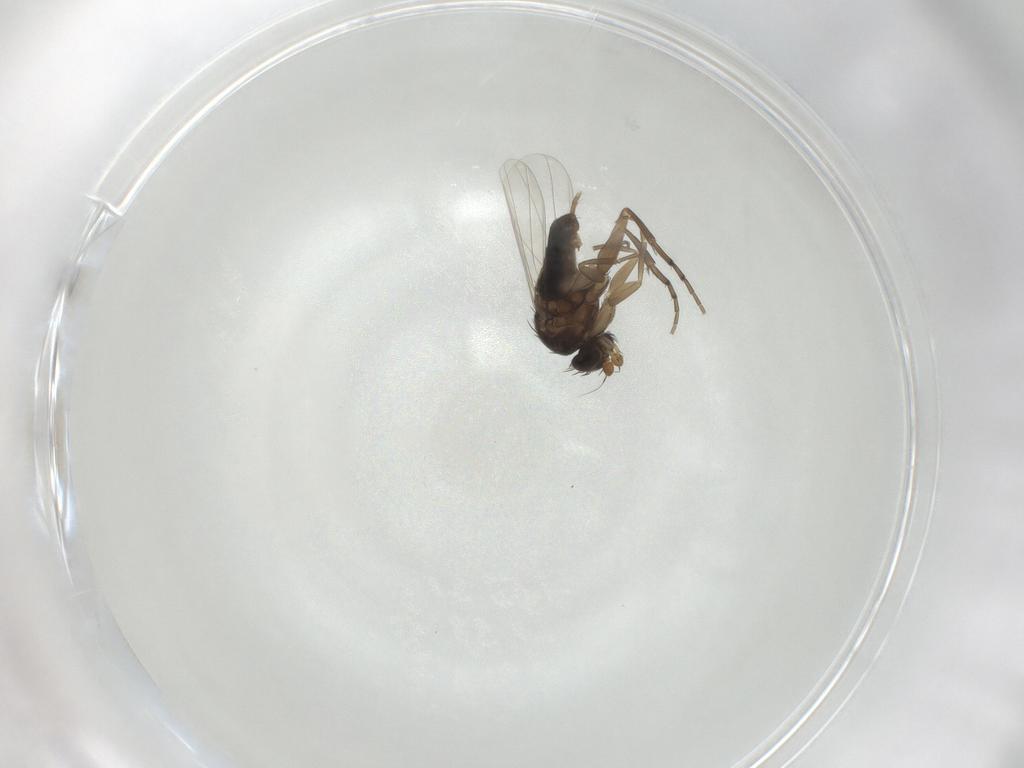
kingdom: Animalia
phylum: Arthropoda
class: Insecta
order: Diptera
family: Phoridae
